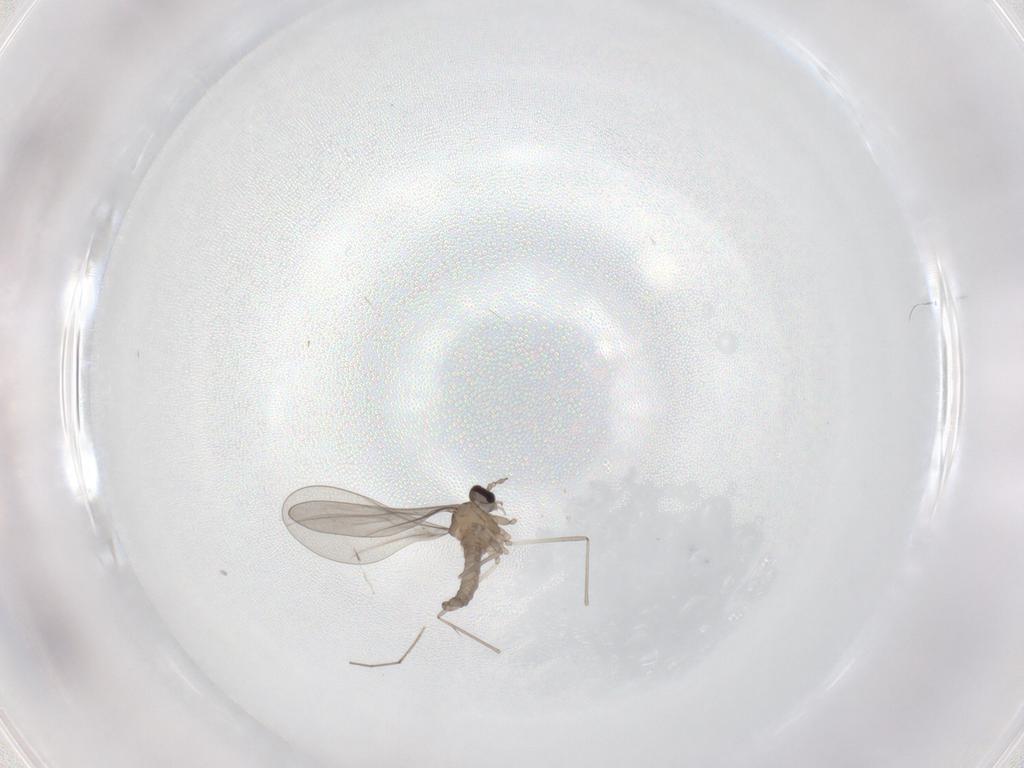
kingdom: Animalia
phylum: Arthropoda
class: Insecta
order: Diptera
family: Cecidomyiidae
